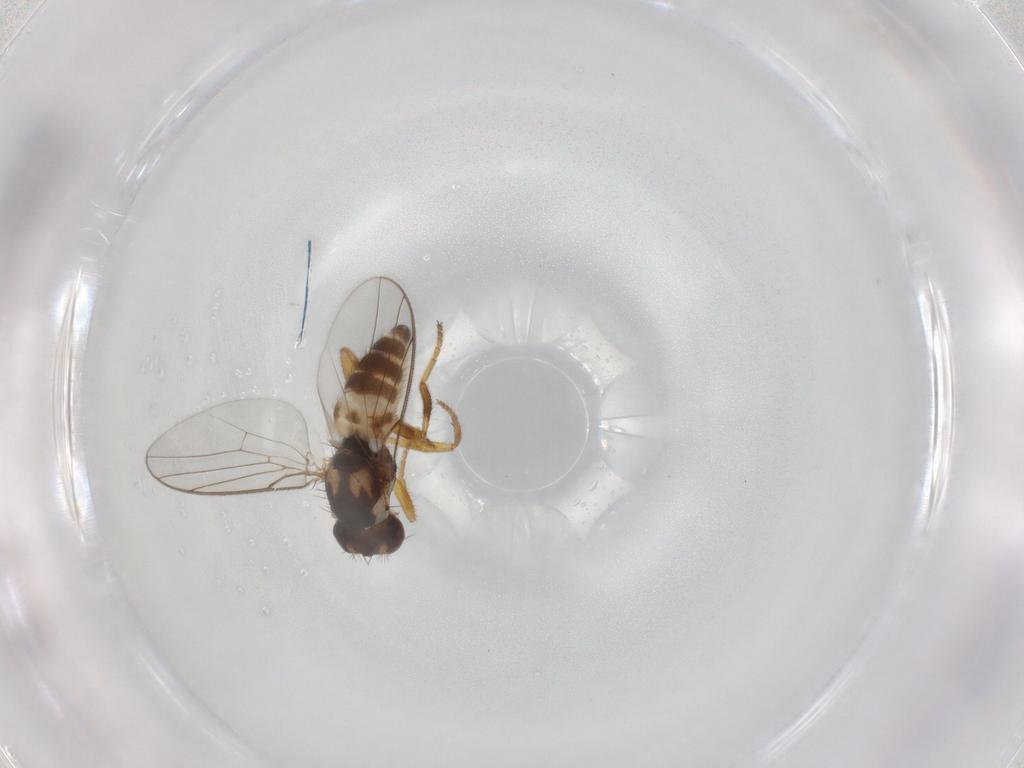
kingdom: Animalia
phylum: Arthropoda
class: Insecta
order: Diptera
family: Chloropidae
